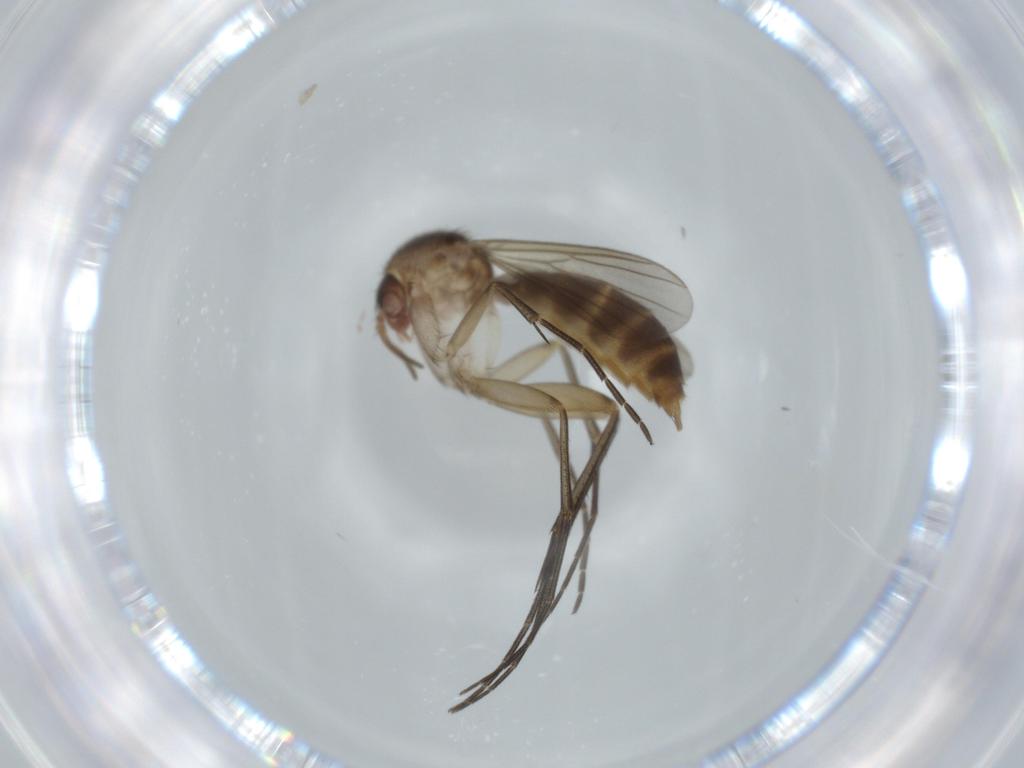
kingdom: Animalia
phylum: Arthropoda
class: Insecta
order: Diptera
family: Mycetophilidae
